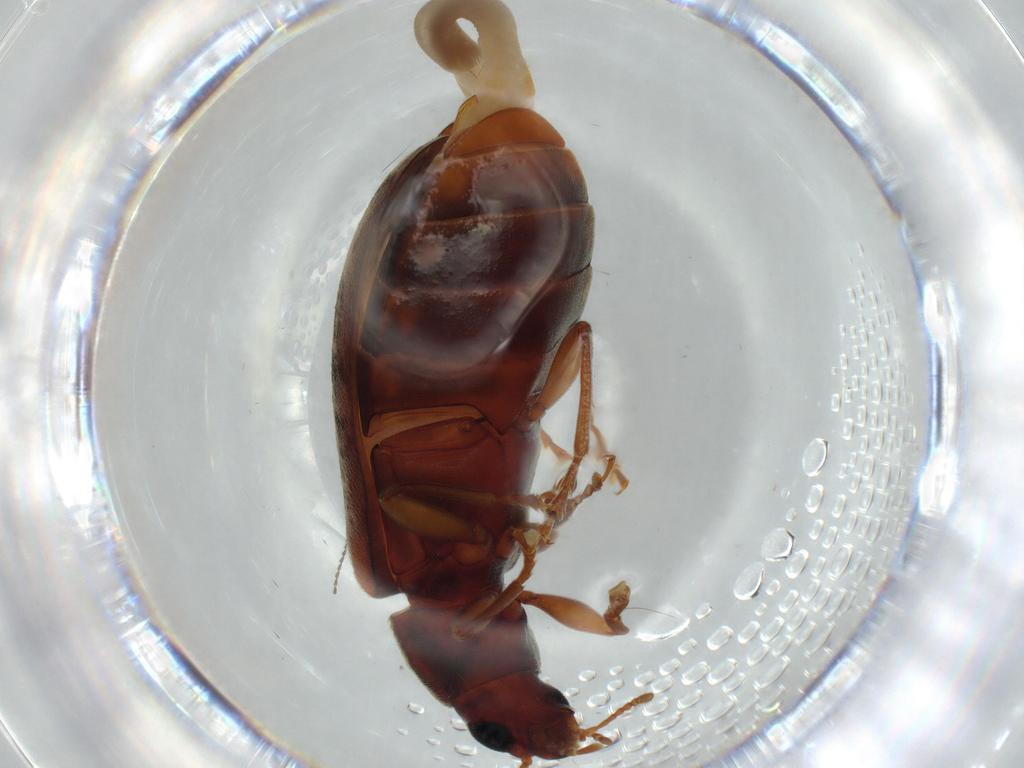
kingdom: Animalia
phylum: Arthropoda
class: Insecta
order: Coleoptera
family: Mycteridae
